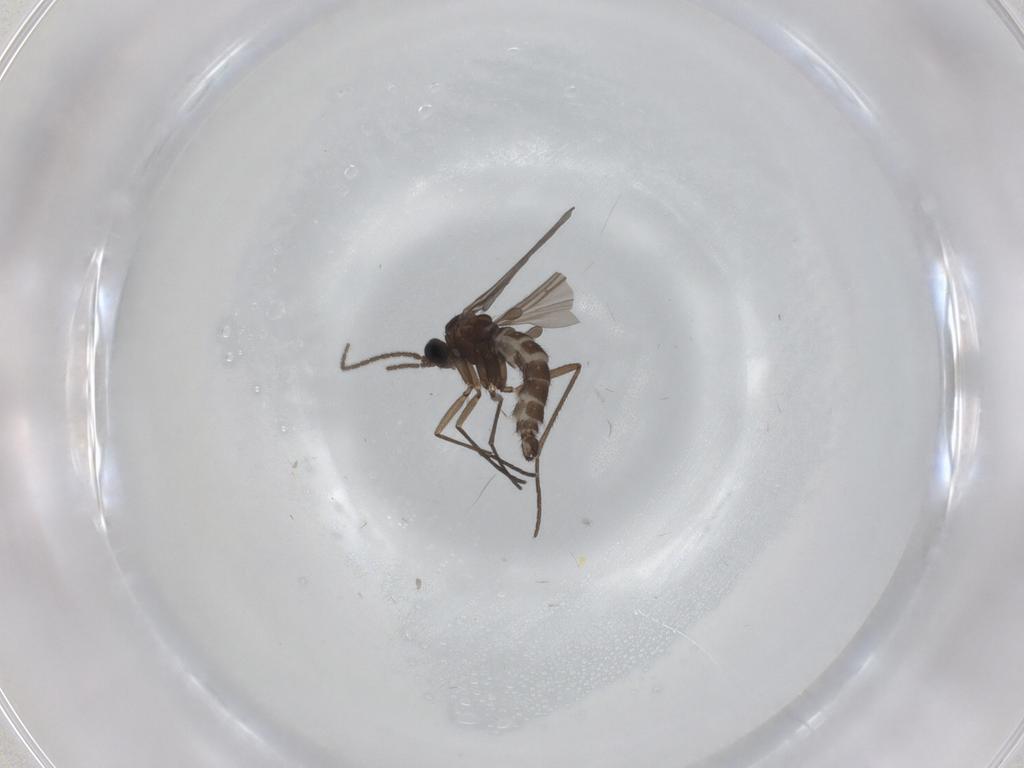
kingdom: Animalia
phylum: Arthropoda
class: Insecta
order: Diptera
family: Sciaridae
